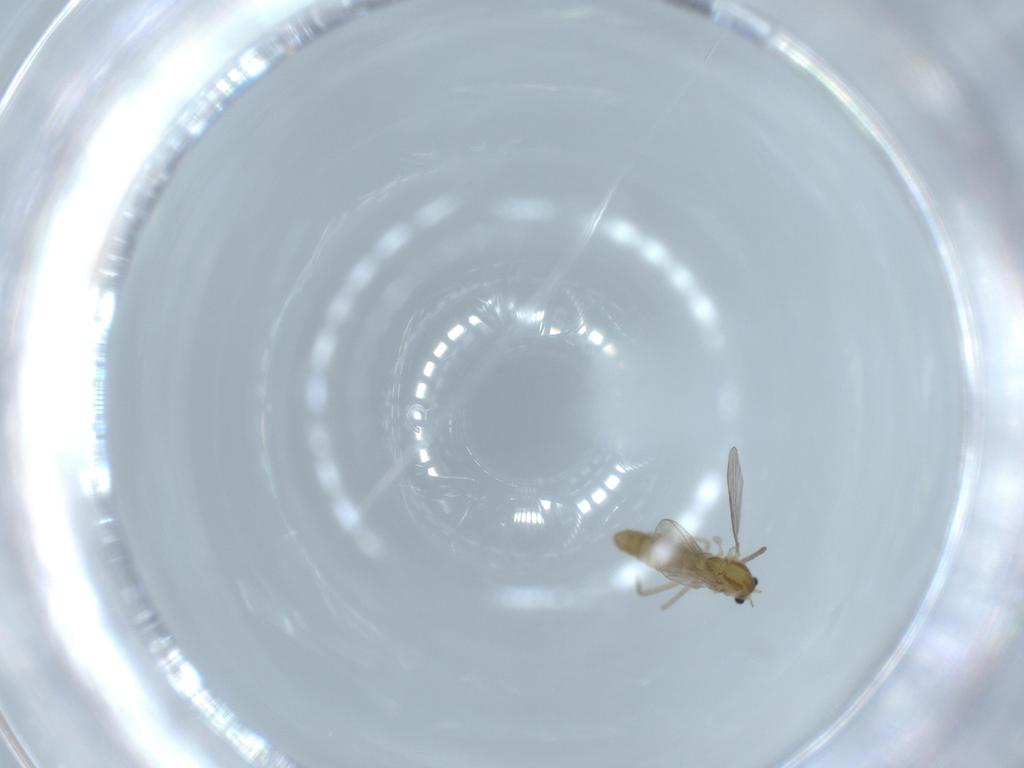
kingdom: Animalia
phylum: Arthropoda
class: Insecta
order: Diptera
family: Chironomidae
